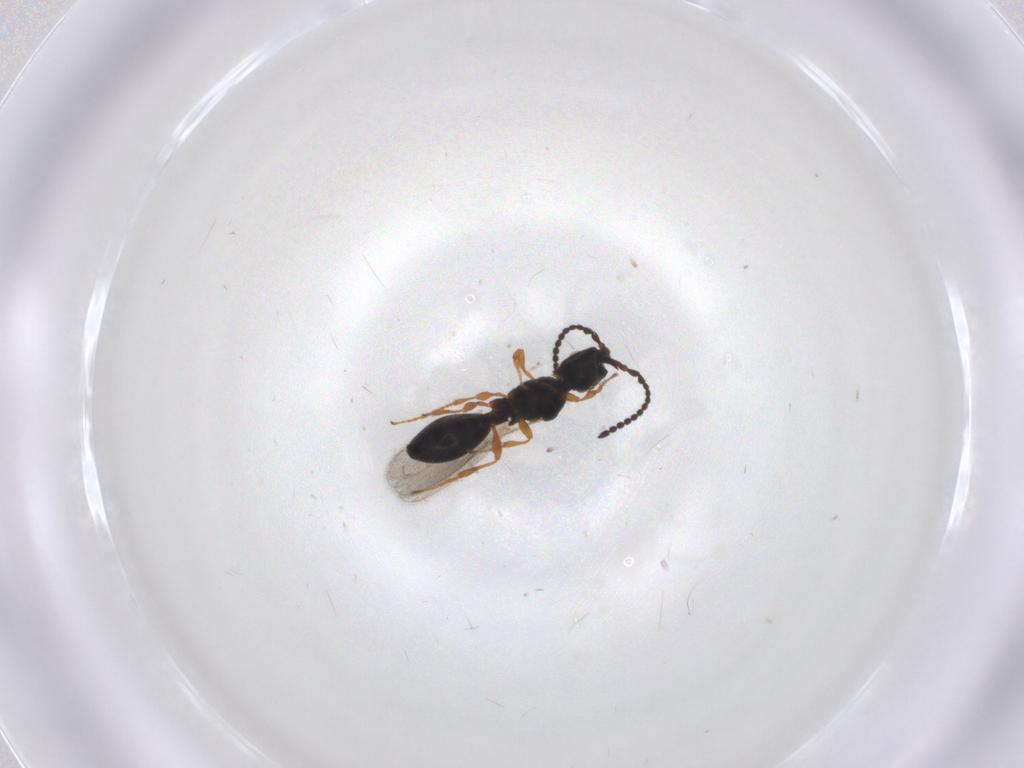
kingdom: Animalia
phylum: Arthropoda
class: Insecta
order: Hymenoptera
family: Diapriidae
